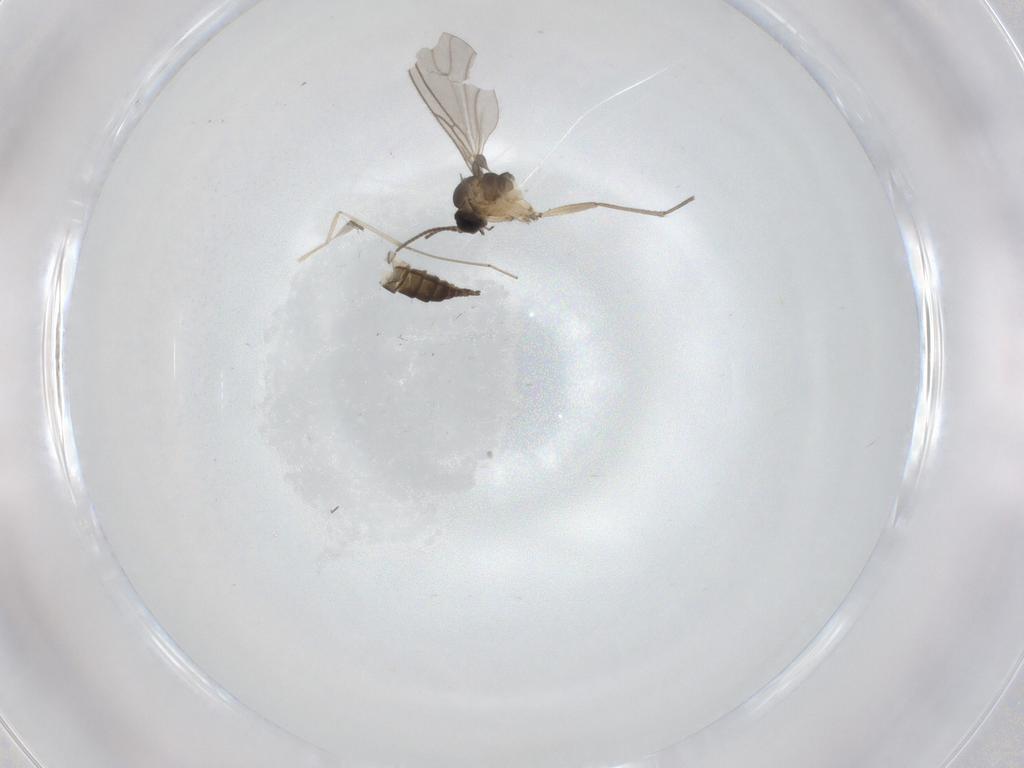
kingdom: Animalia
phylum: Arthropoda
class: Insecta
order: Diptera
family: Sciaridae
